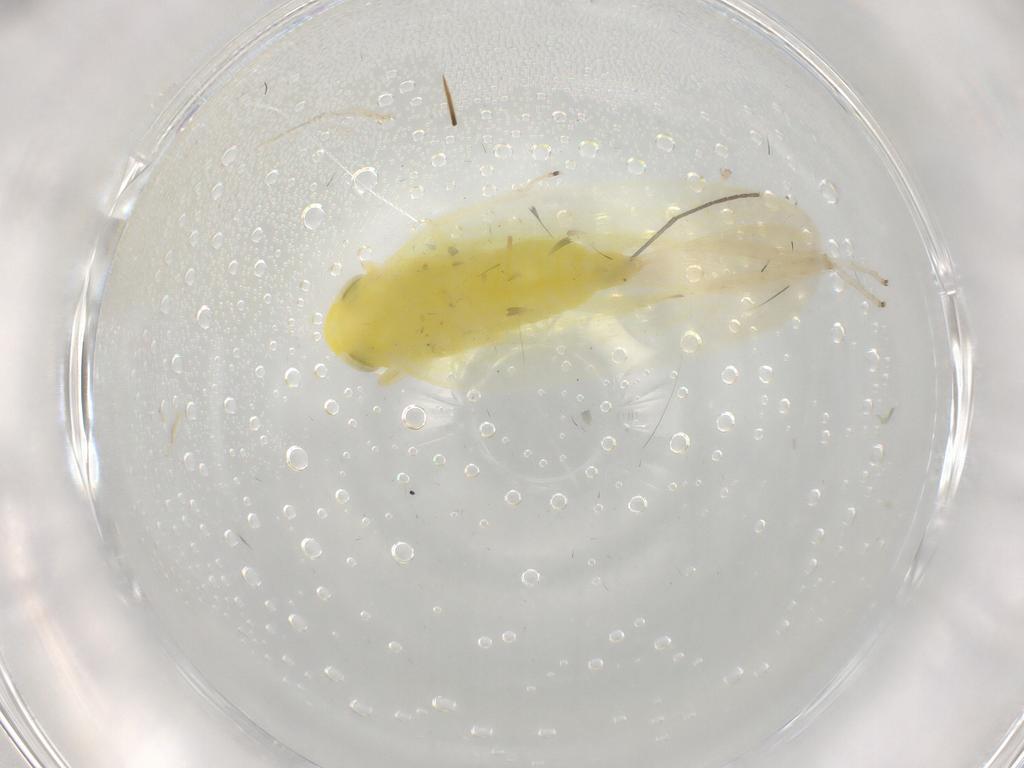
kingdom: Animalia
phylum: Arthropoda
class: Insecta
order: Hemiptera
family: Cicadellidae
